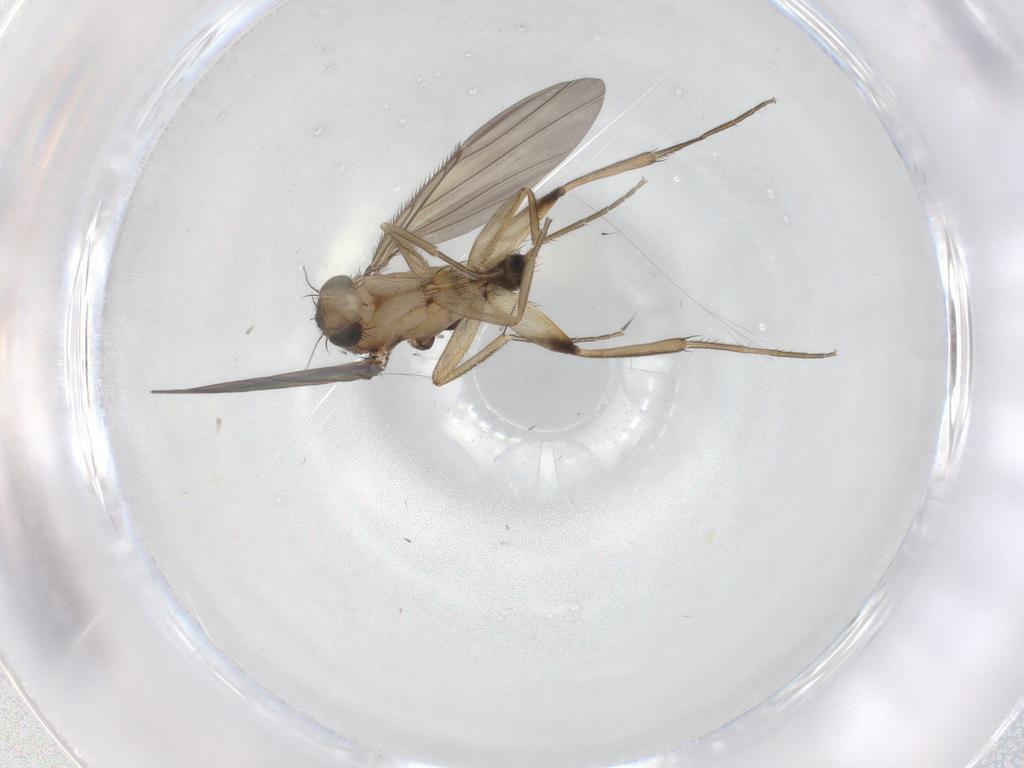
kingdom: Animalia
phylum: Arthropoda
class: Insecta
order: Diptera
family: Phoridae
